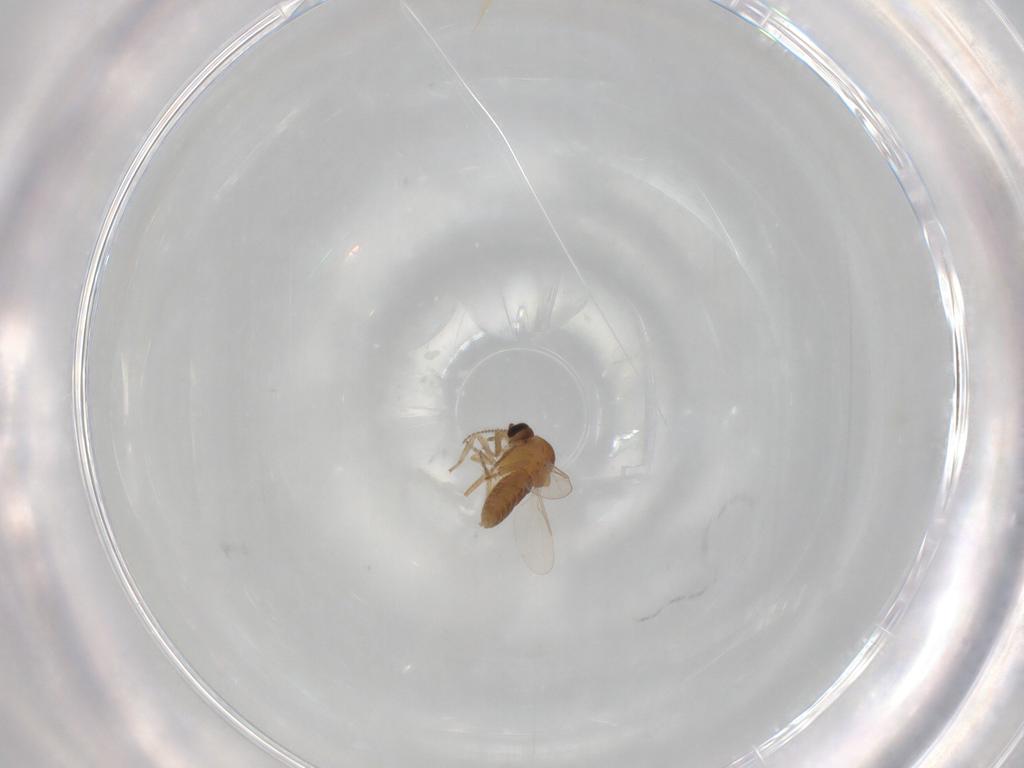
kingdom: Animalia
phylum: Arthropoda
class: Insecta
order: Diptera
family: Ceratopogonidae
